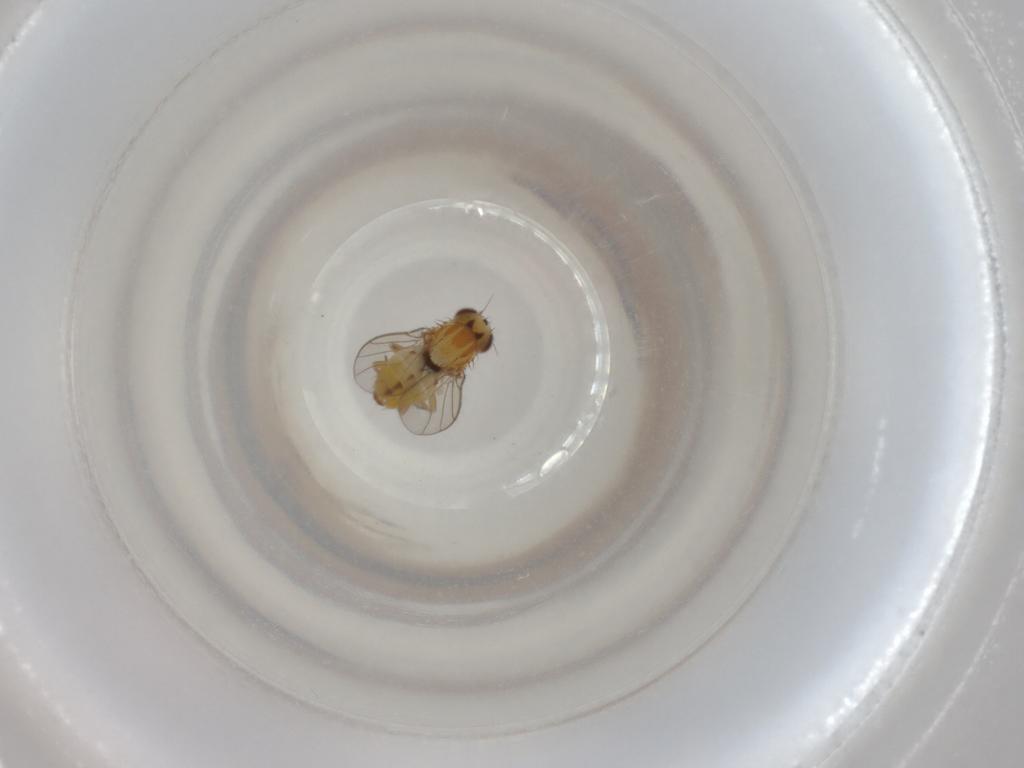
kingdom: Animalia
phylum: Arthropoda
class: Insecta
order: Diptera
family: Chloropidae
